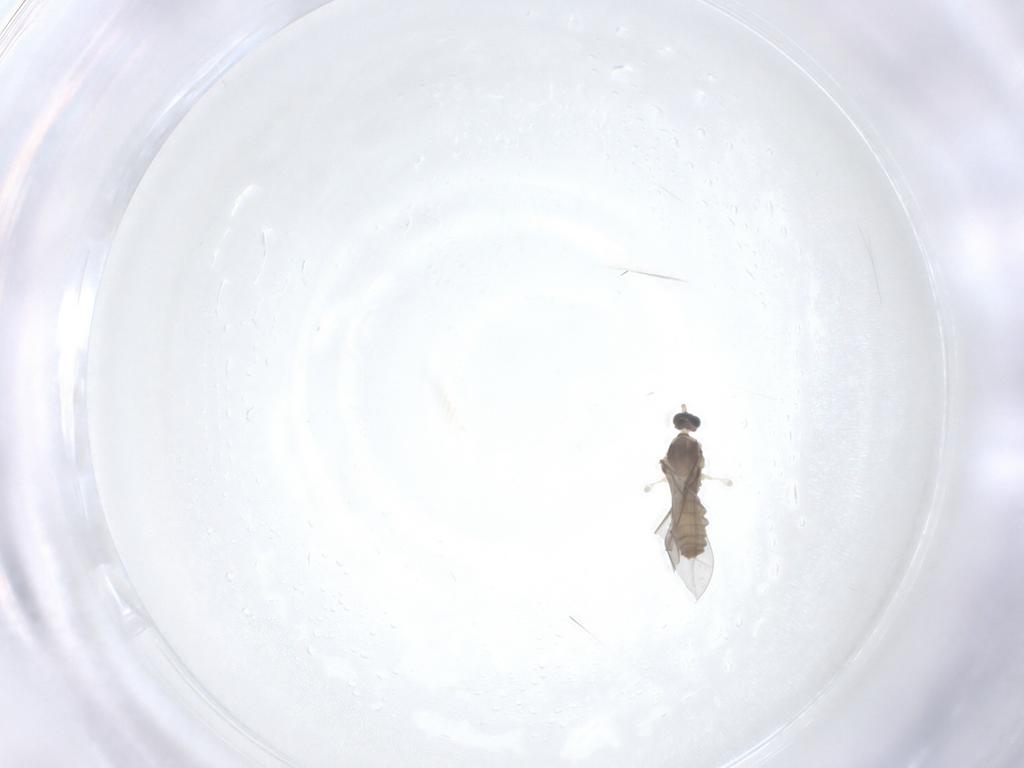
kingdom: Animalia
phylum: Arthropoda
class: Insecta
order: Diptera
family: Cecidomyiidae
